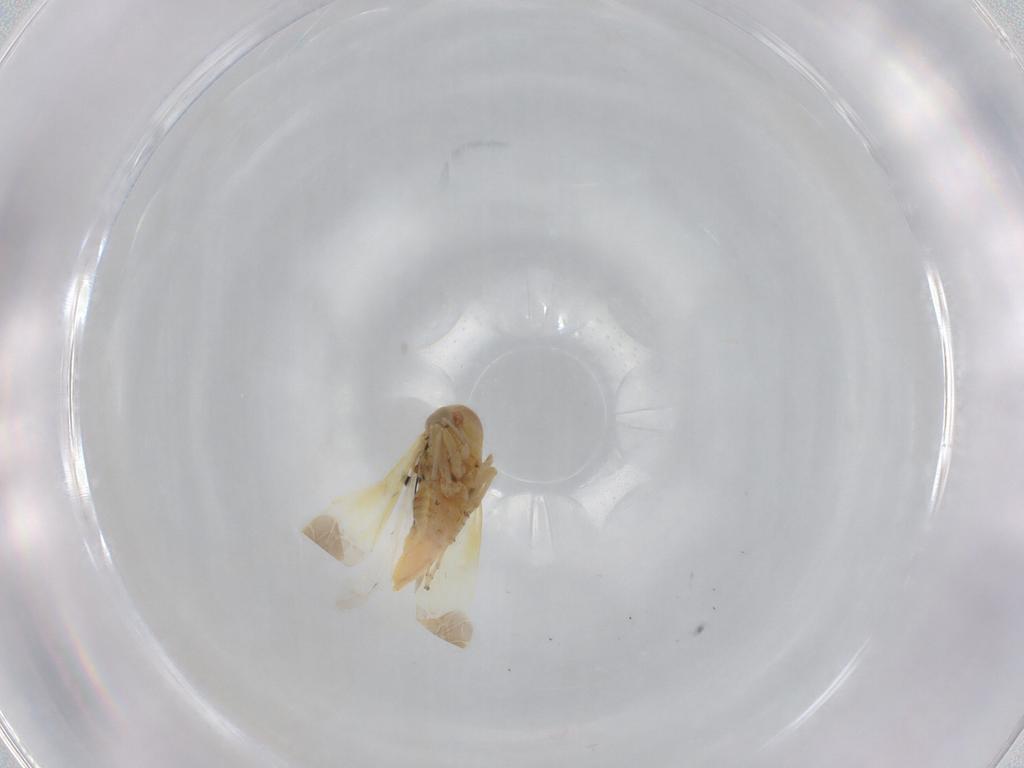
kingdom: Animalia
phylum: Arthropoda
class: Insecta
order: Hemiptera
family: Cicadellidae
